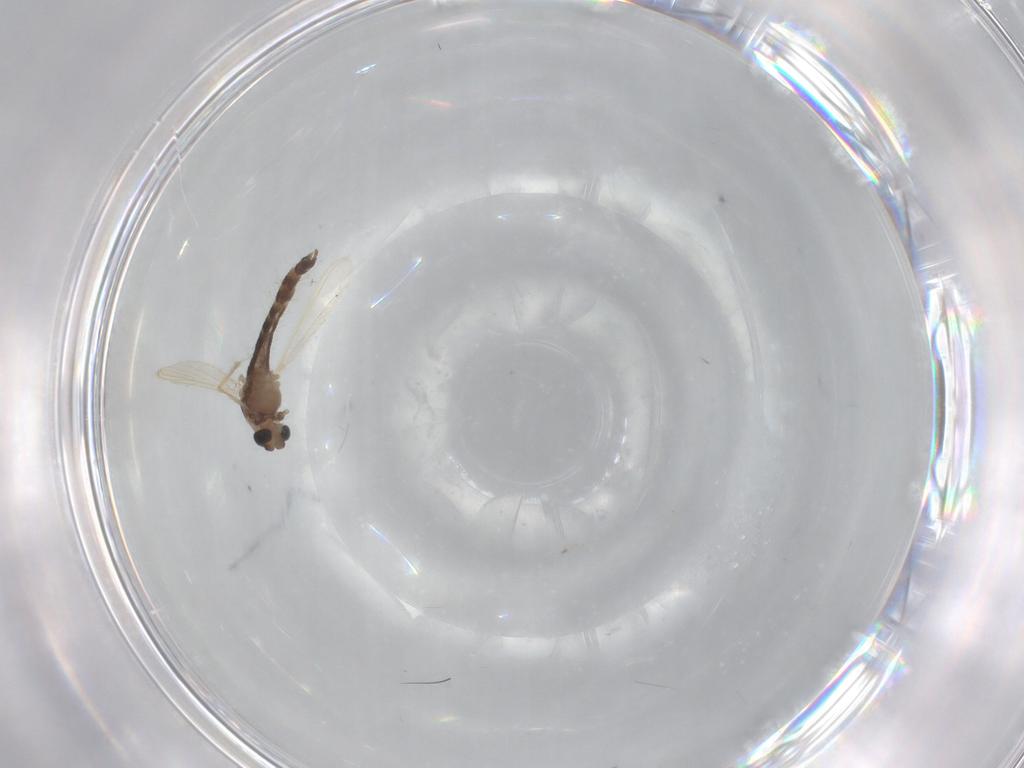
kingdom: Animalia
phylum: Arthropoda
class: Insecta
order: Diptera
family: Chironomidae
